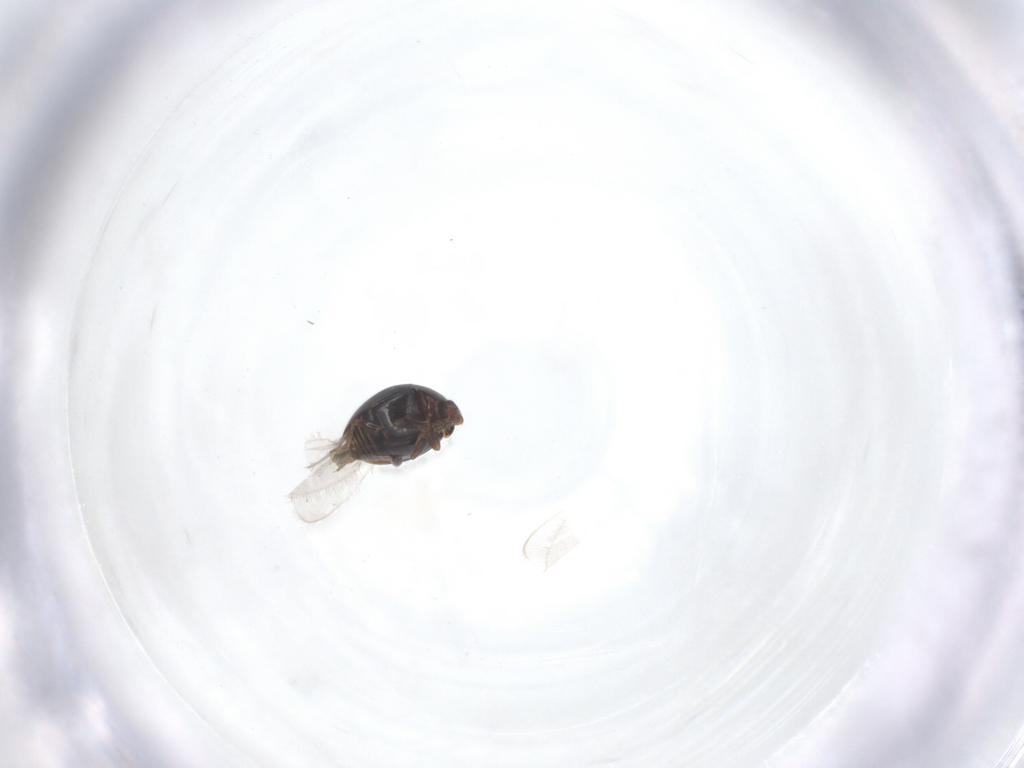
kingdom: Animalia
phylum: Arthropoda
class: Insecta
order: Coleoptera
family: Corylophidae
